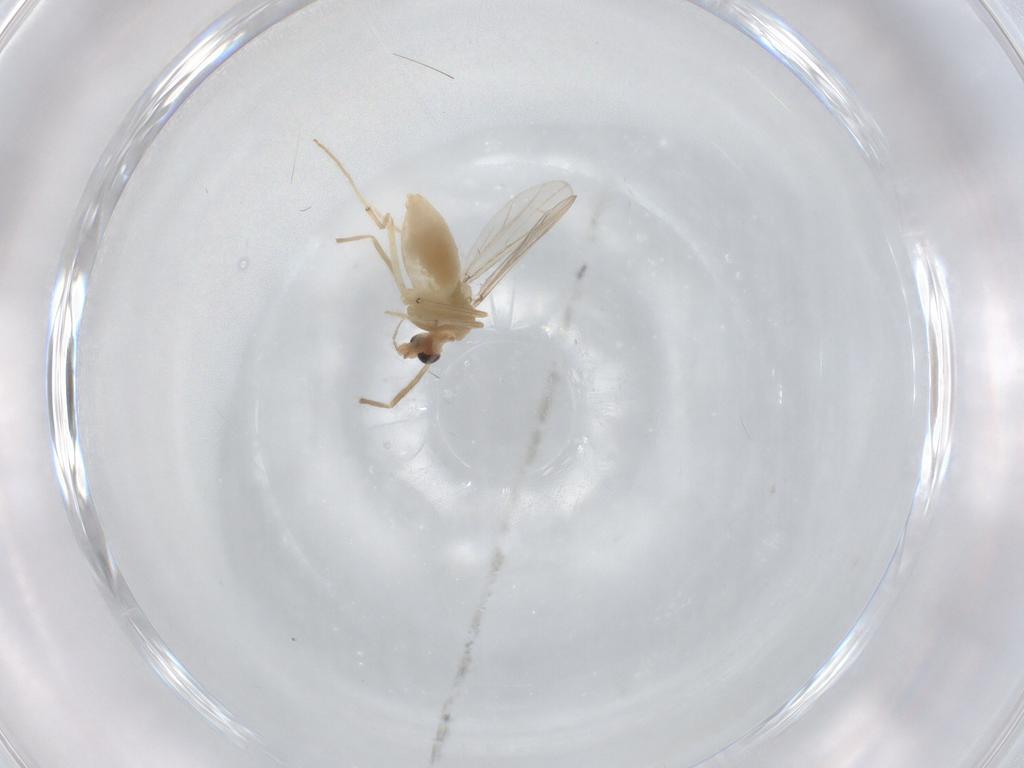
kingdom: Animalia
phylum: Arthropoda
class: Insecta
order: Diptera
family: Chironomidae
